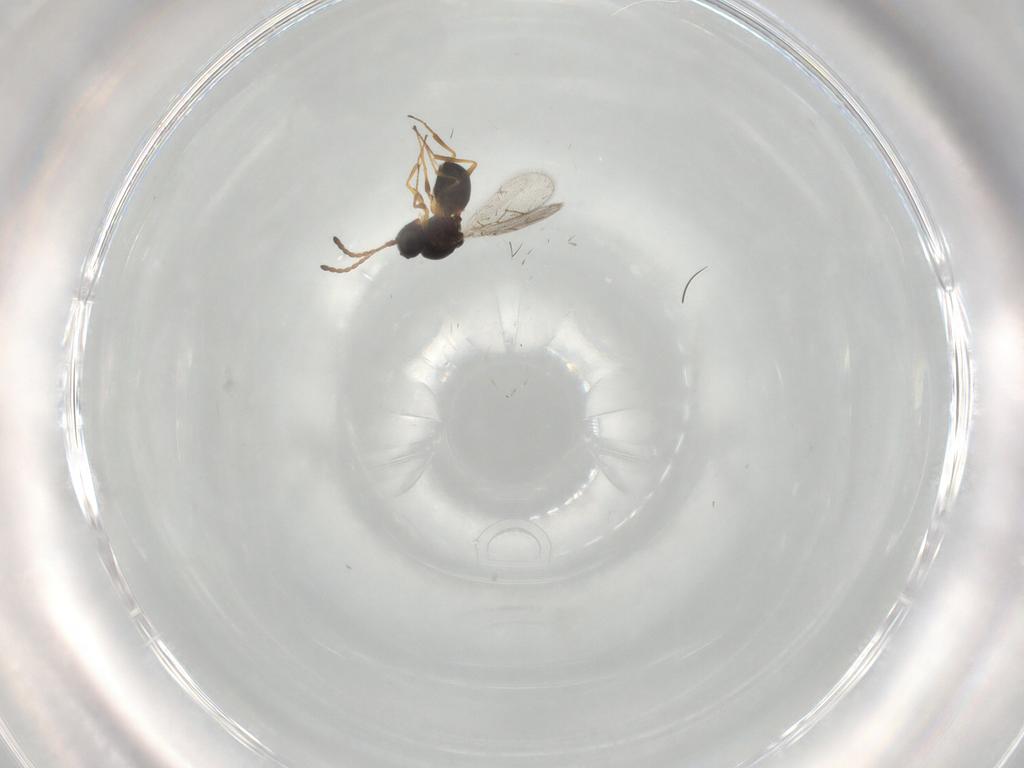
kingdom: Animalia
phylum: Arthropoda
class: Insecta
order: Hymenoptera
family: Figitidae
